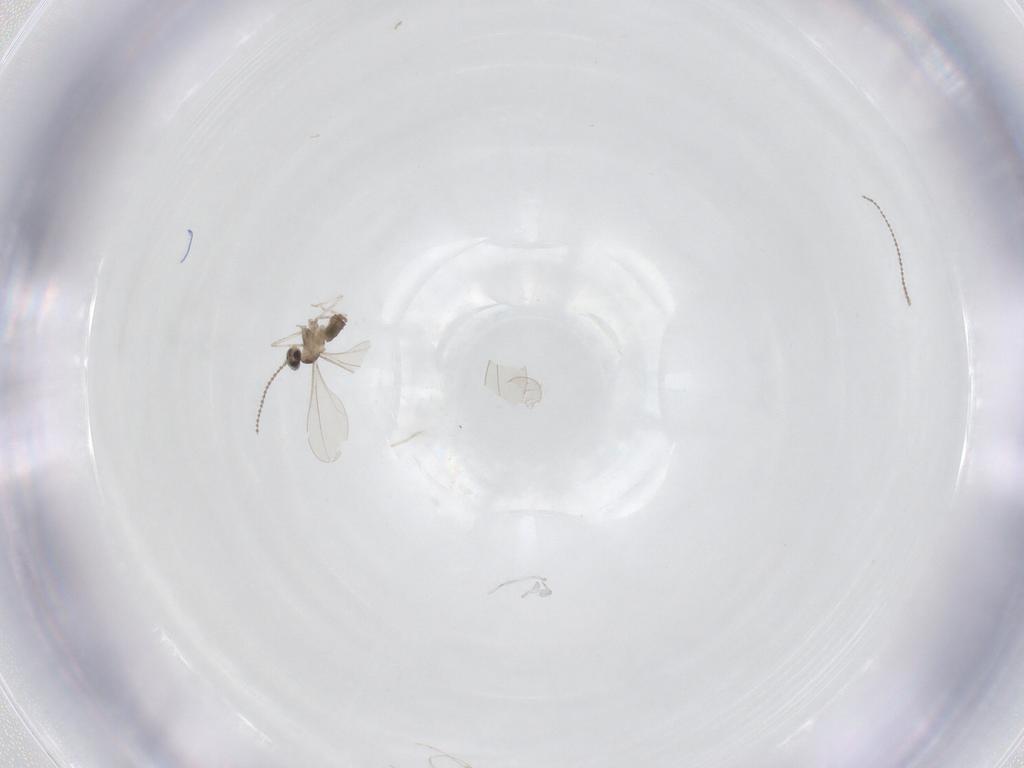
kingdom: Animalia
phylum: Arthropoda
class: Insecta
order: Diptera
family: Cecidomyiidae
